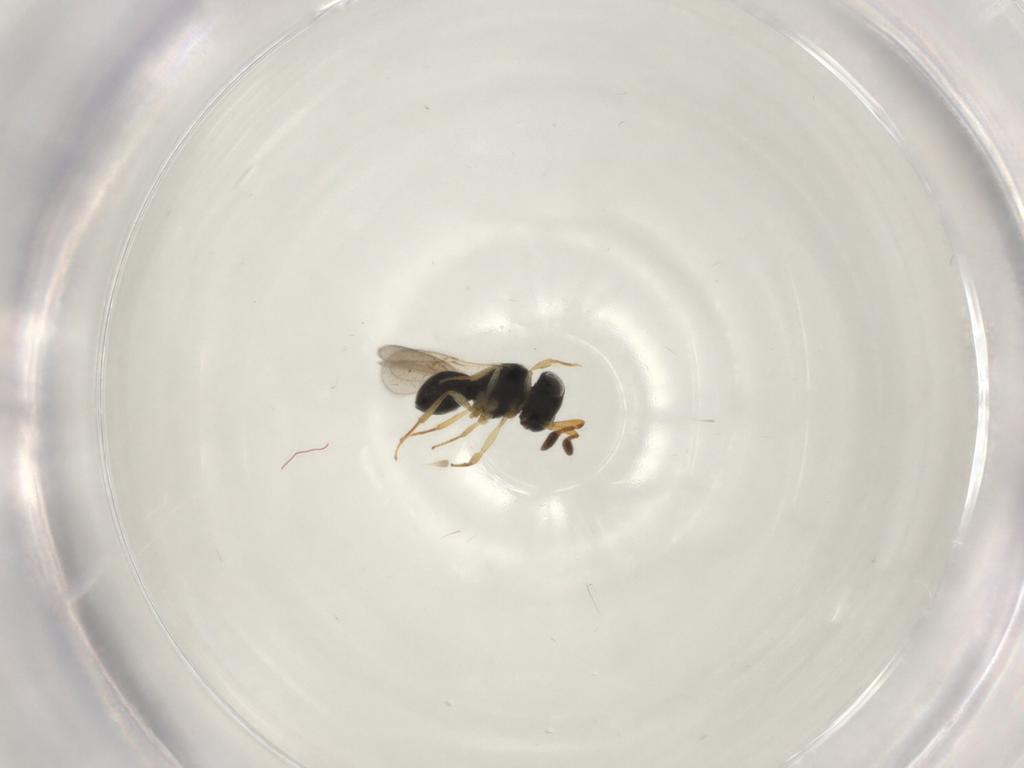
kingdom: Animalia
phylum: Arthropoda
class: Insecta
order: Hymenoptera
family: Scelionidae
